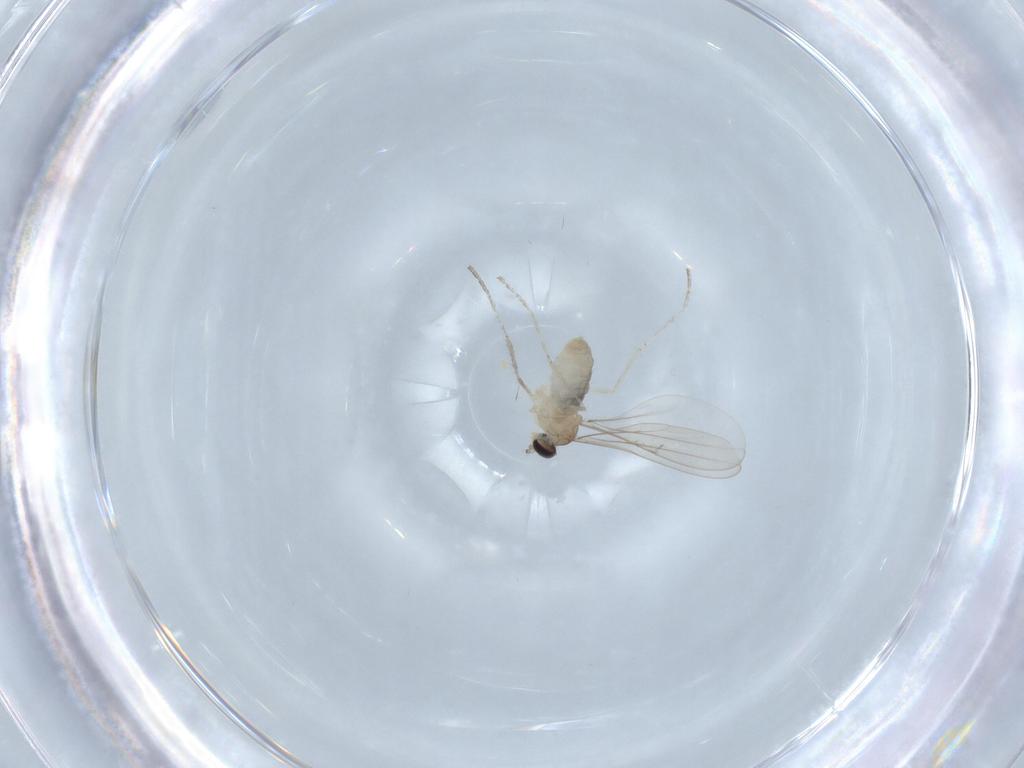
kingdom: Animalia
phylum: Arthropoda
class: Insecta
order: Diptera
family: Cecidomyiidae
